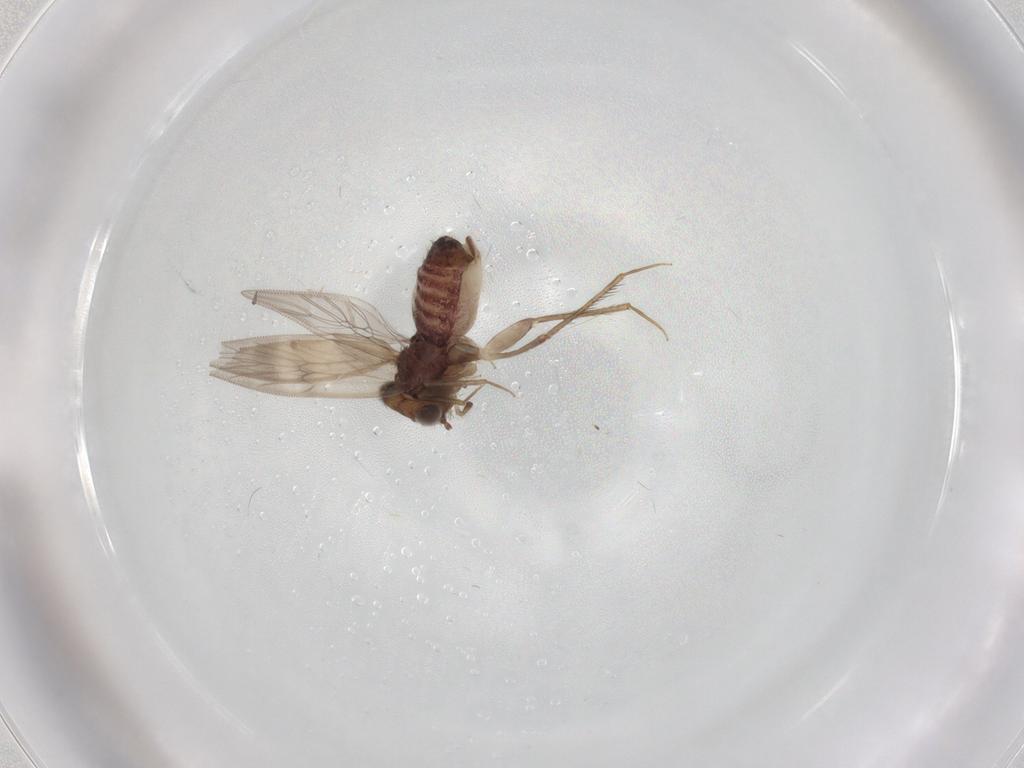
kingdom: Animalia
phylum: Arthropoda
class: Insecta
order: Psocodea
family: Lepidopsocidae
